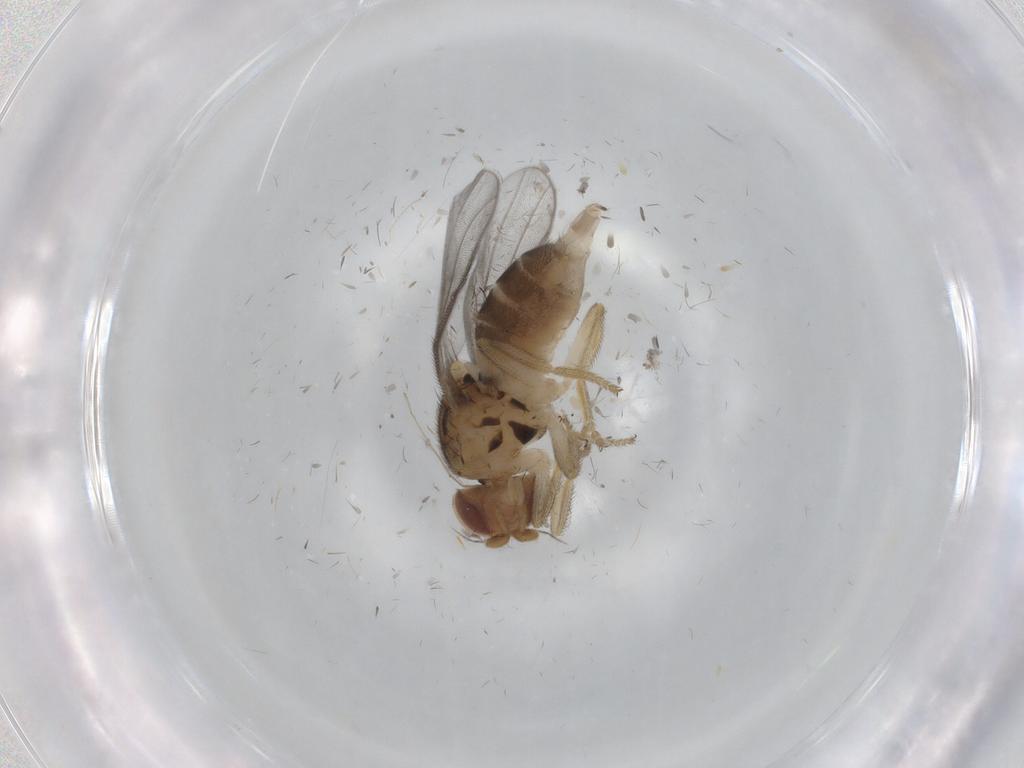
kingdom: Animalia
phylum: Arthropoda
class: Insecta
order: Diptera
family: Chloropidae
